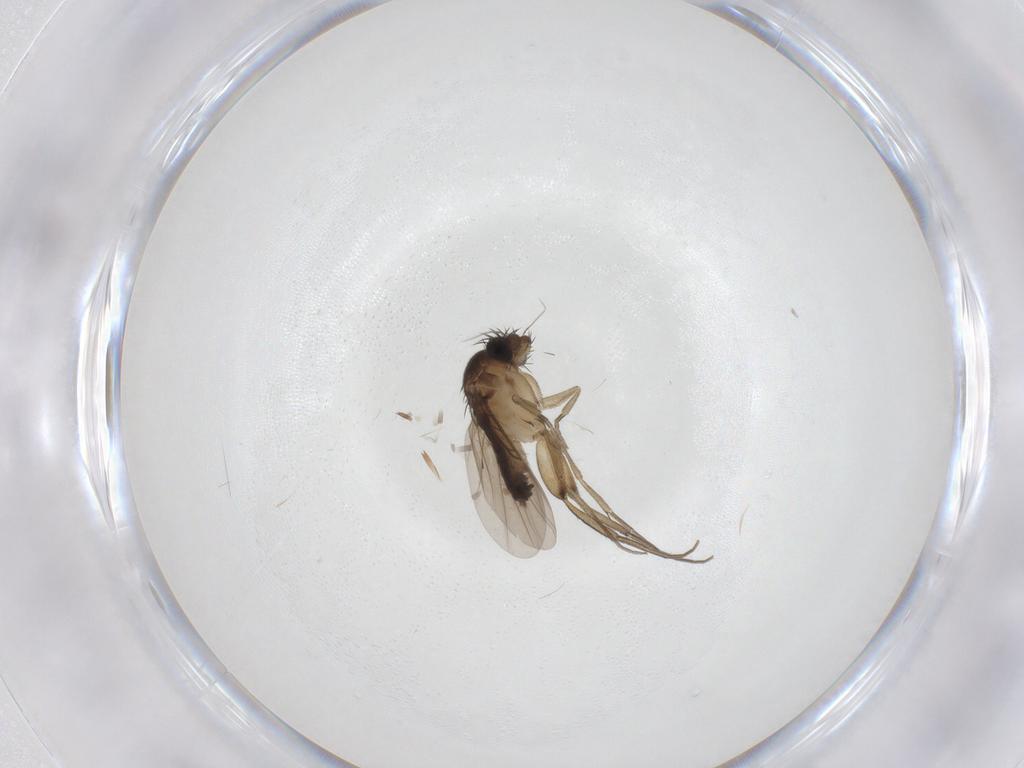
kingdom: Animalia
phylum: Arthropoda
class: Insecta
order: Diptera
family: Phoridae
